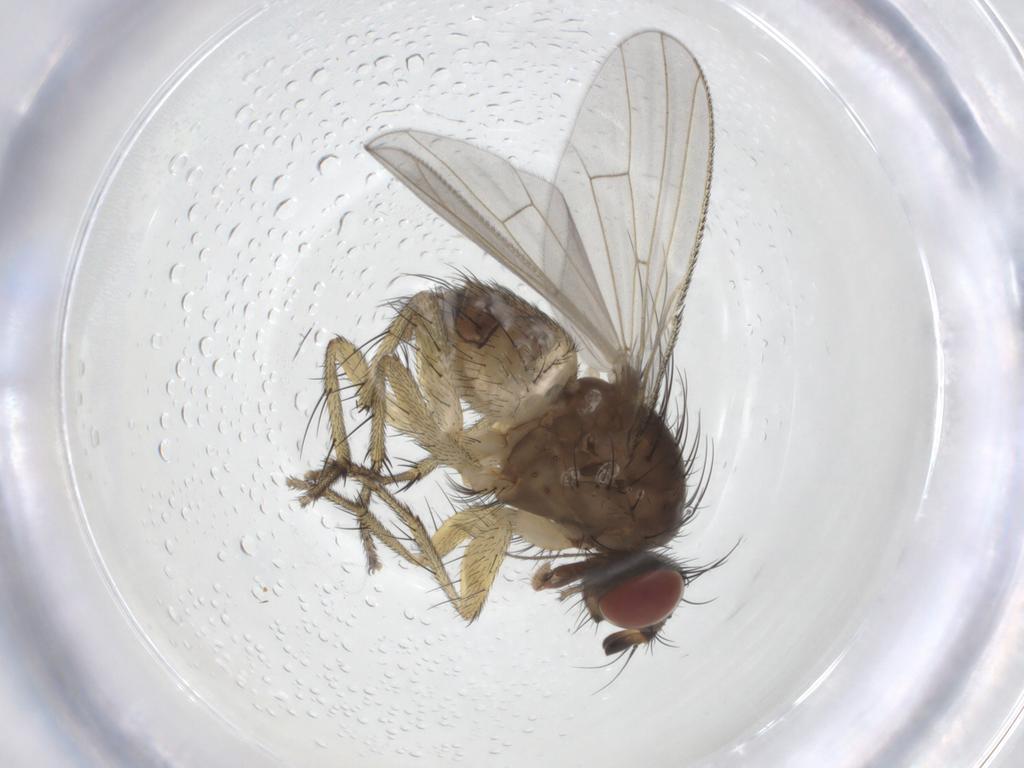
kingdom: Animalia
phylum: Arthropoda
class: Insecta
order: Diptera
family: Muscidae
